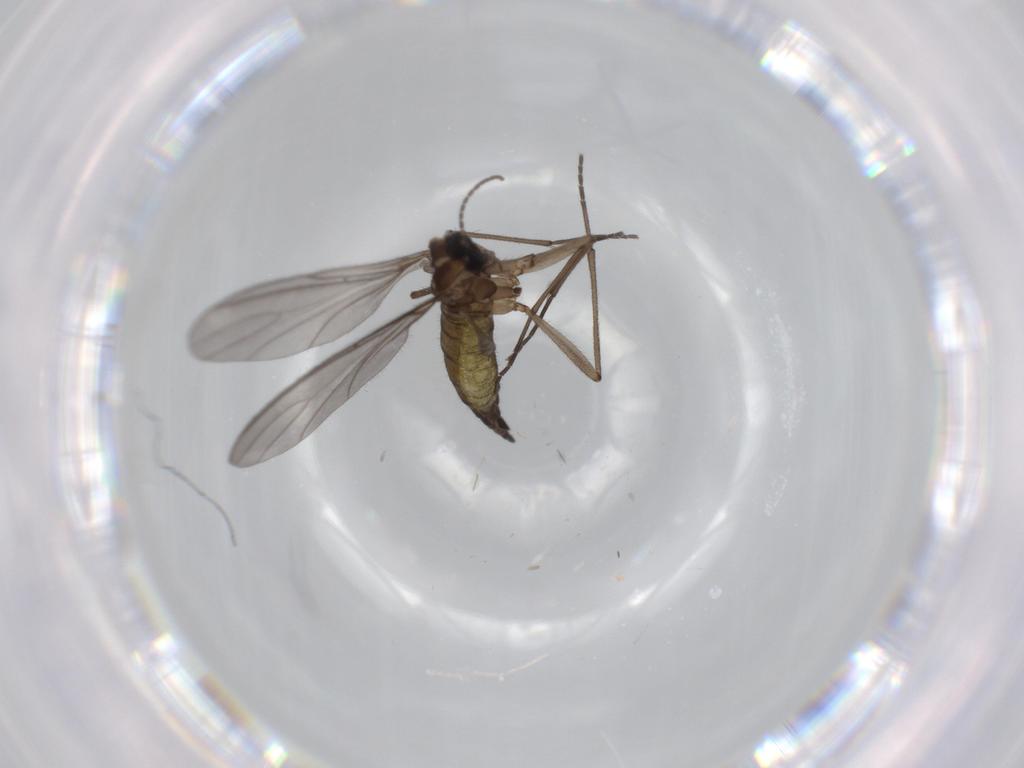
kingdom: Animalia
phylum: Arthropoda
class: Insecta
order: Diptera
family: Sciaridae
